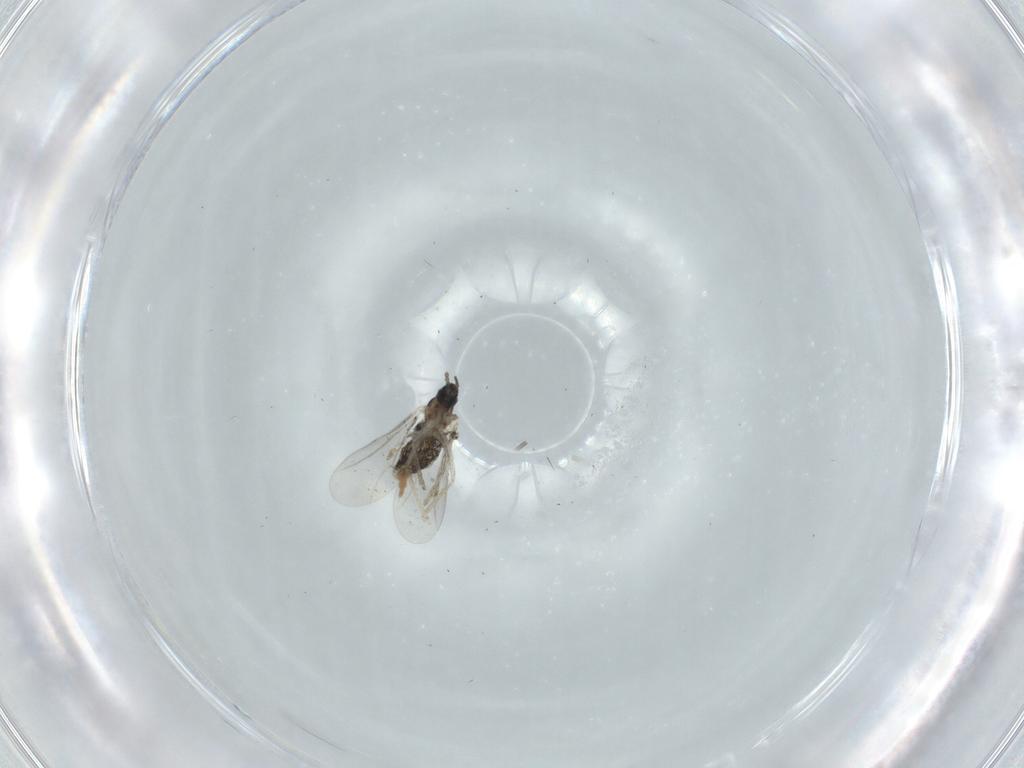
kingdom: Animalia
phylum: Arthropoda
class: Insecta
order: Diptera
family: Cecidomyiidae
